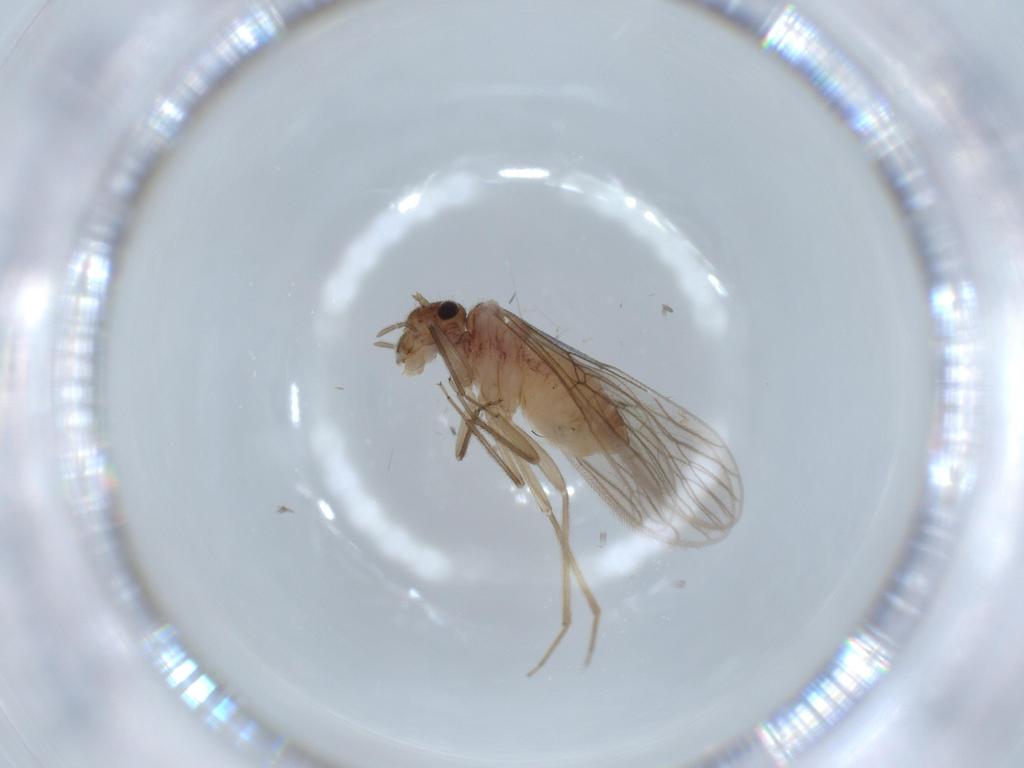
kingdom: Animalia
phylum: Arthropoda
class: Insecta
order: Psocodea
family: Cladiopsocidae
